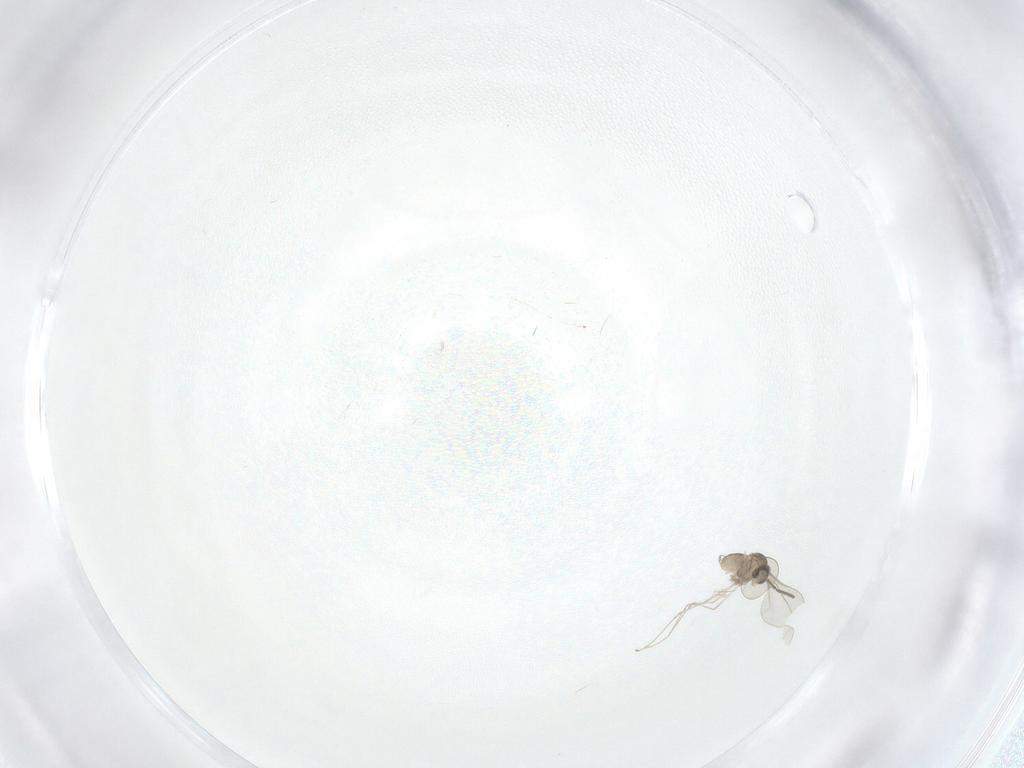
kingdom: Animalia
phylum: Arthropoda
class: Insecta
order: Diptera
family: Cecidomyiidae
